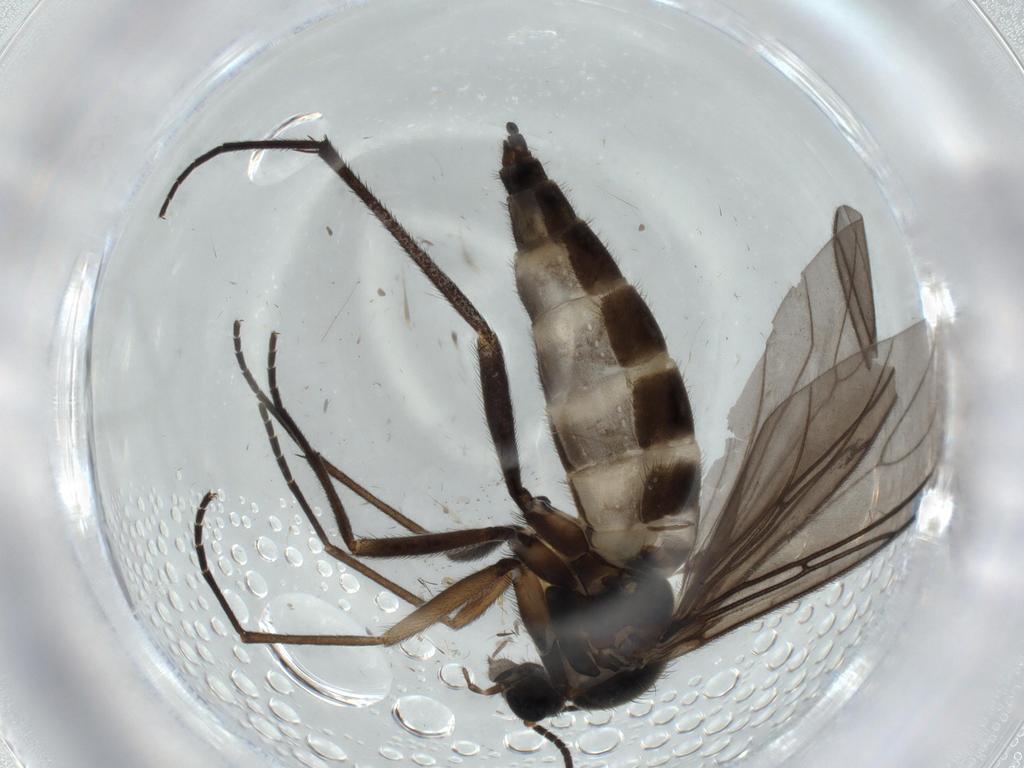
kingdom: Animalia
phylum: Arthropoda
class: Insecta
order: Diptera
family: Sciaridae
